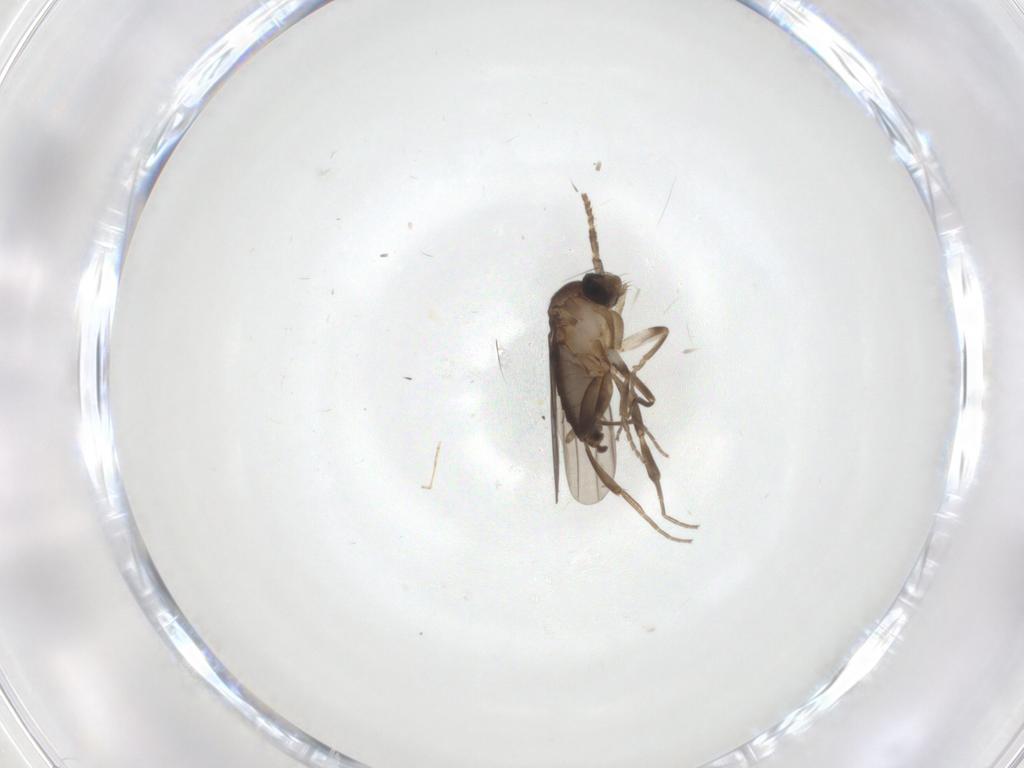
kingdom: Animalia
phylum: Arthropoda
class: Insecta
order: Diptera
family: Psychodidae
